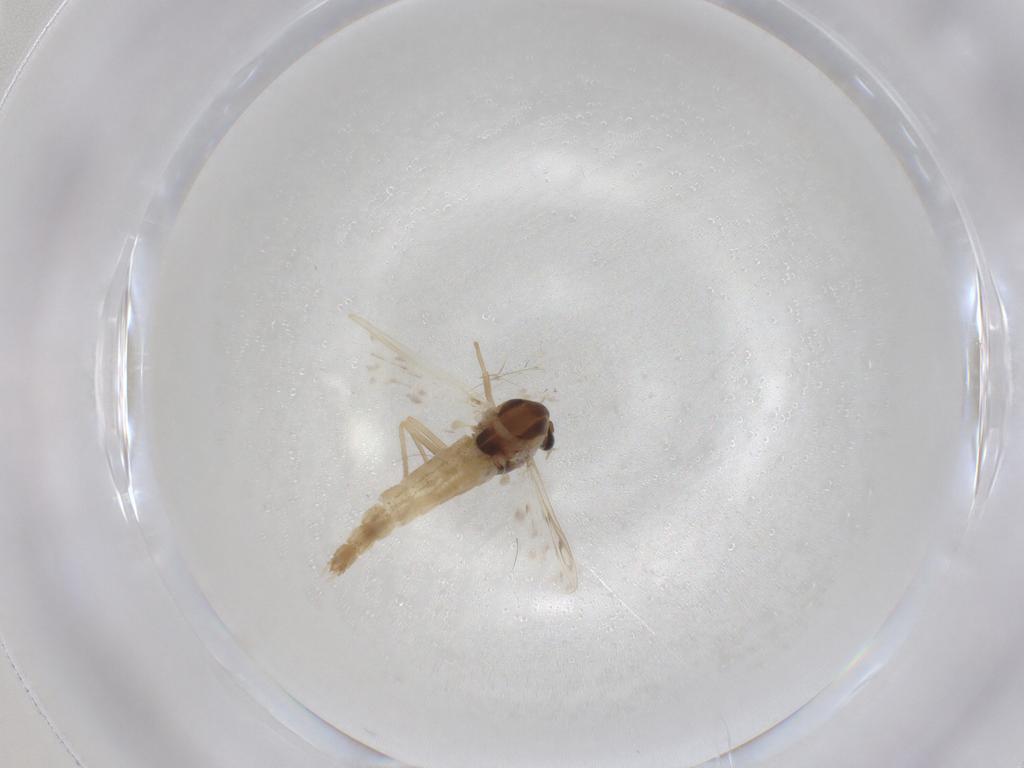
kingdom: Animalia
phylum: Arthropoda
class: Insecta
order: Diptera
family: Chironomidae
